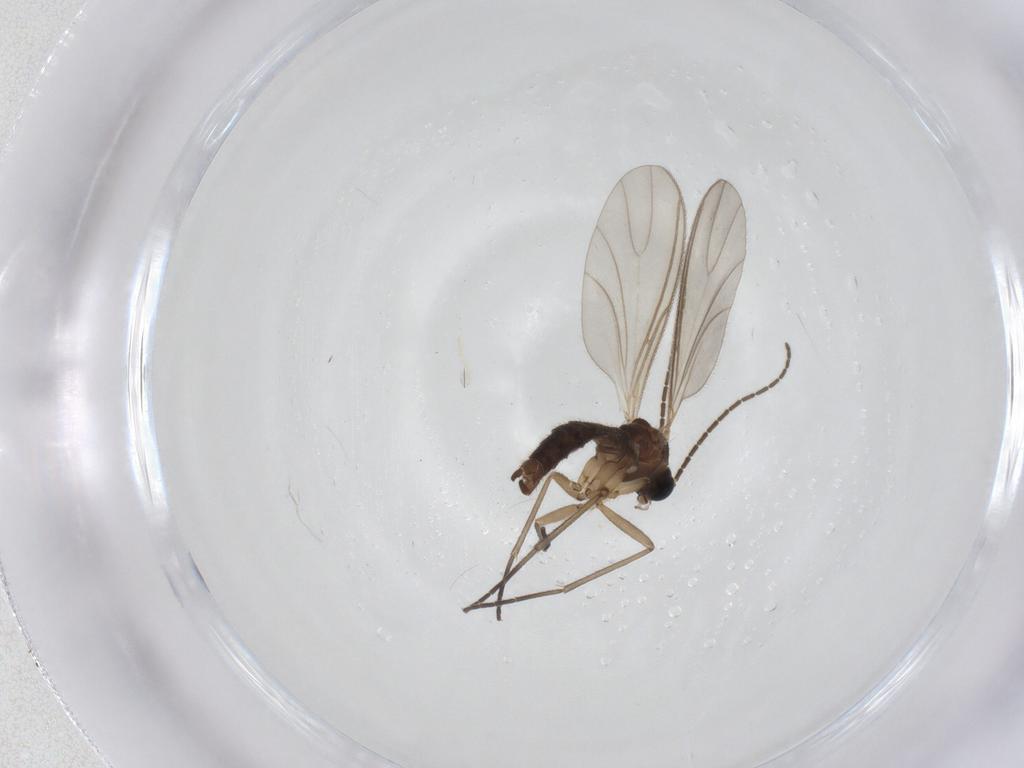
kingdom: Animalia
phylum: Arthropoda
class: Insecta
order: Diptera
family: Sciaridae
